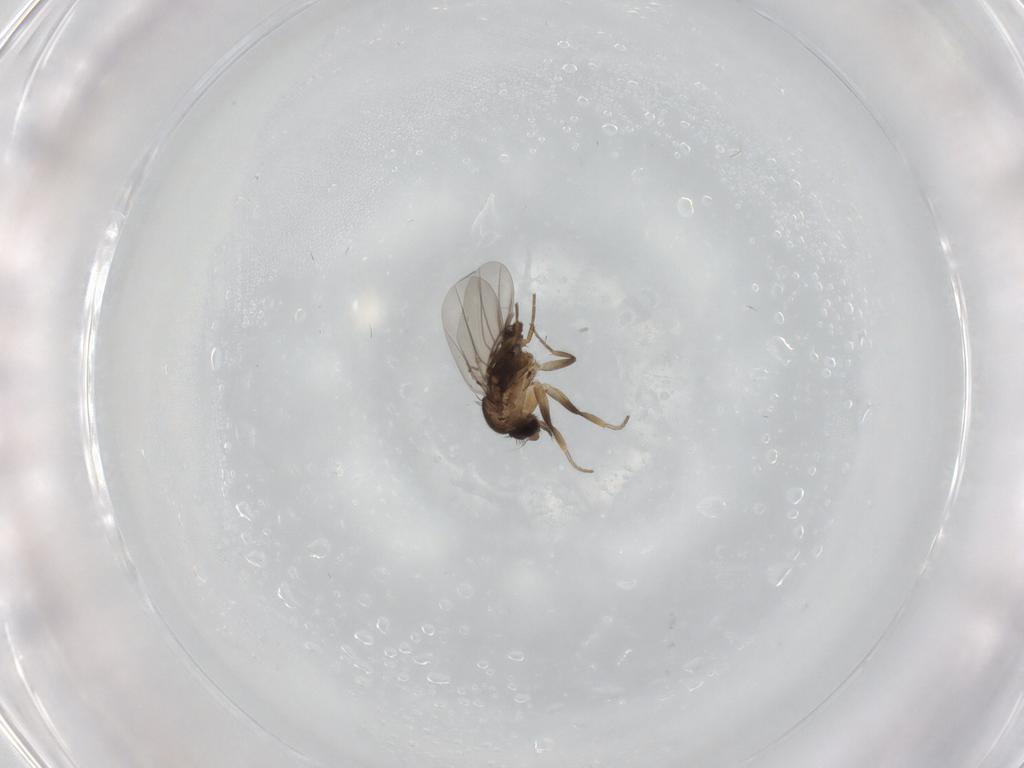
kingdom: Animalia
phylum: Arthropoda
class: Insecta
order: Diptera
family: Phoridae
